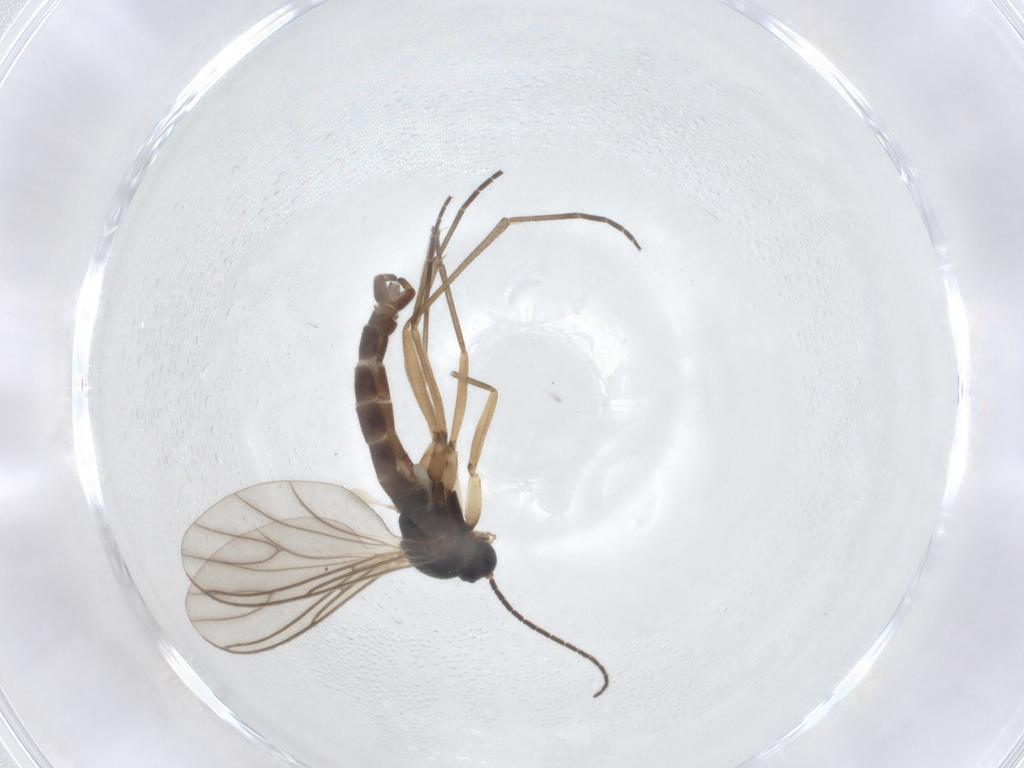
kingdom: Animalia
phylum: Arthropoda
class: Insecta
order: Diptera
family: Sciaridae
